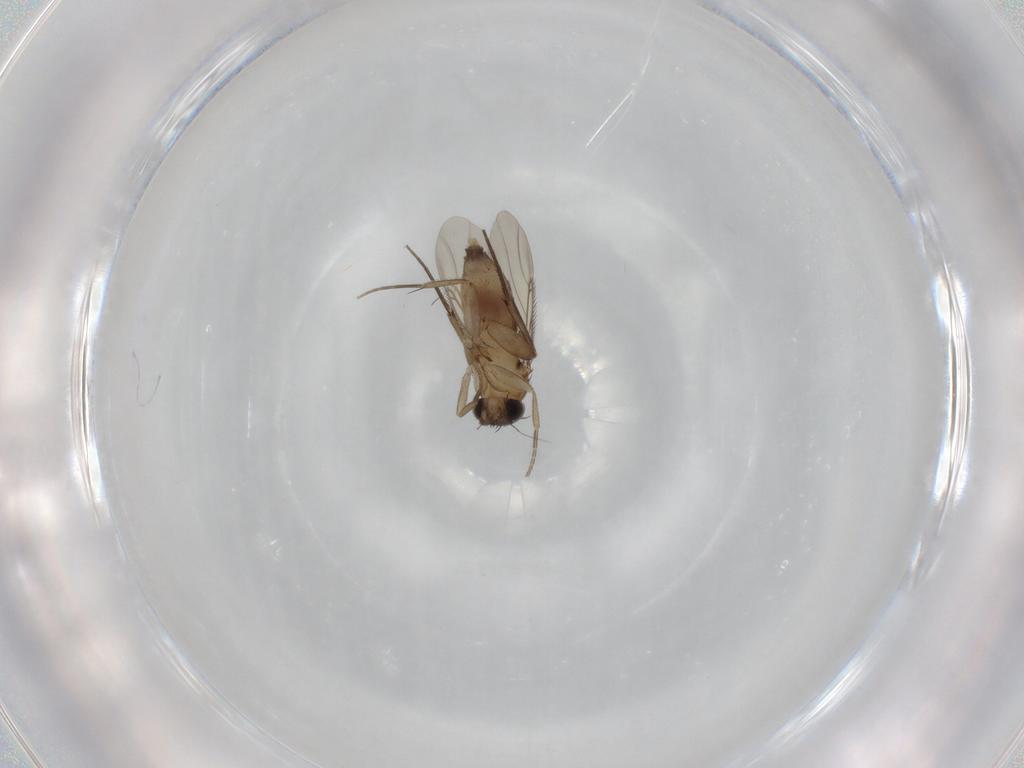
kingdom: Animalia
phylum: Arthropoda
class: Insecta
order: Diptera
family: Phoridae
